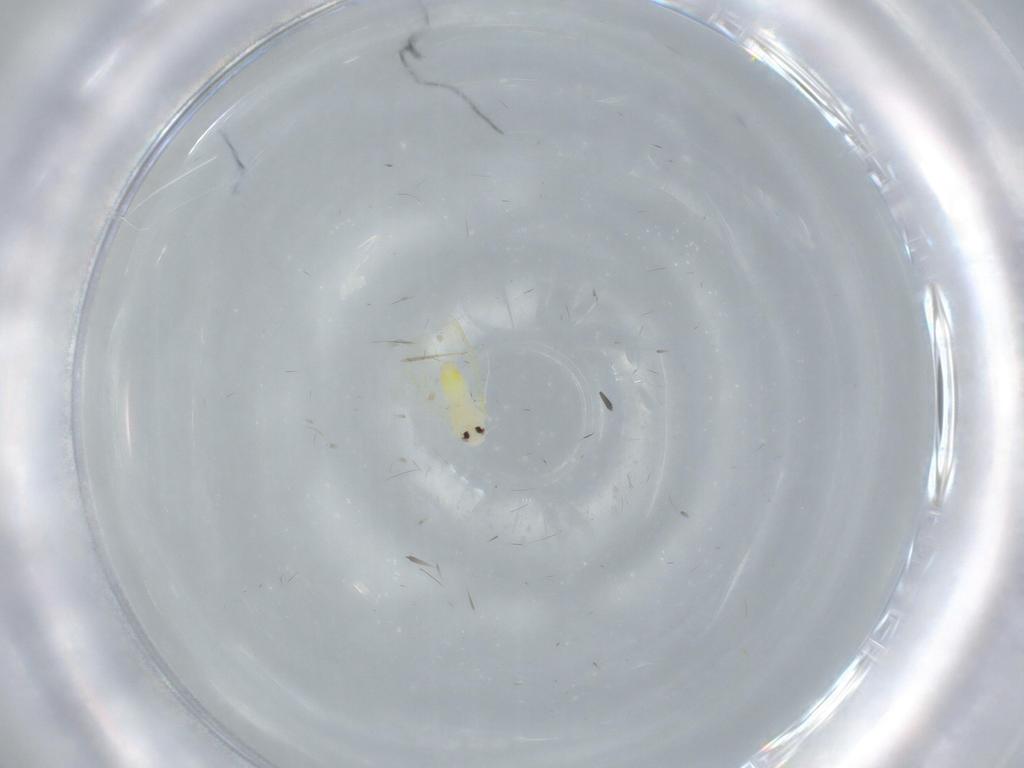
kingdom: Animalia
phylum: Arthropoda
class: Insecta
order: Hemiptera
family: Aleyrodidae
